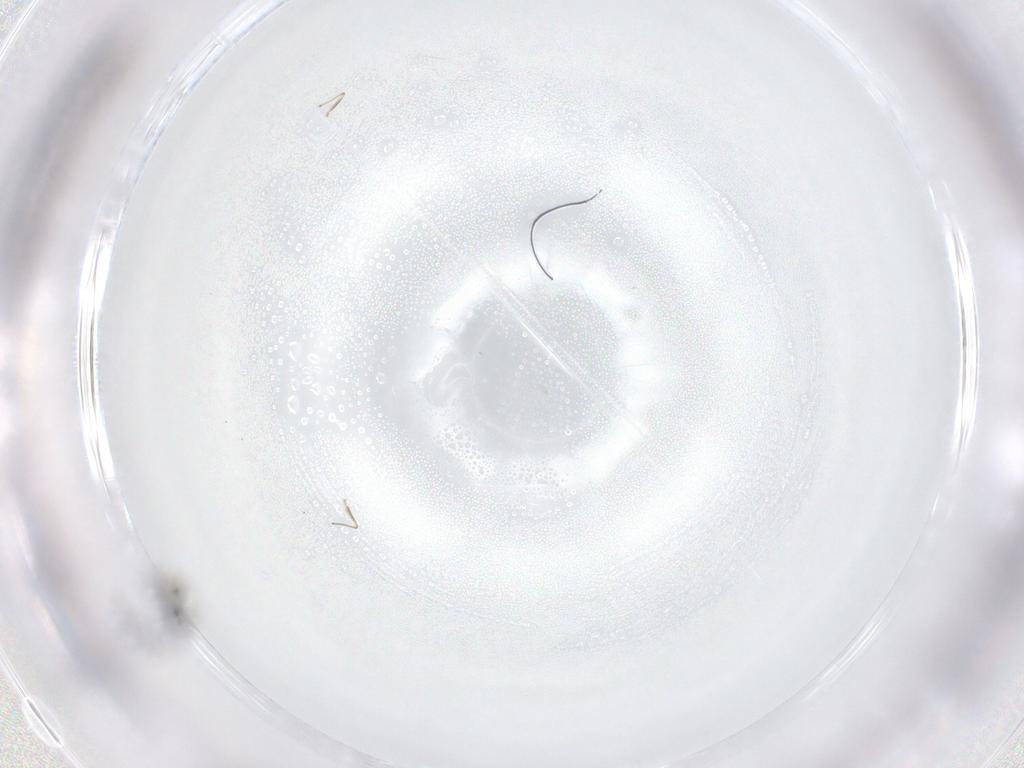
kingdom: Animalia
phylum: Arthropoda
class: Insecta
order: Diptera
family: Chironomidae
